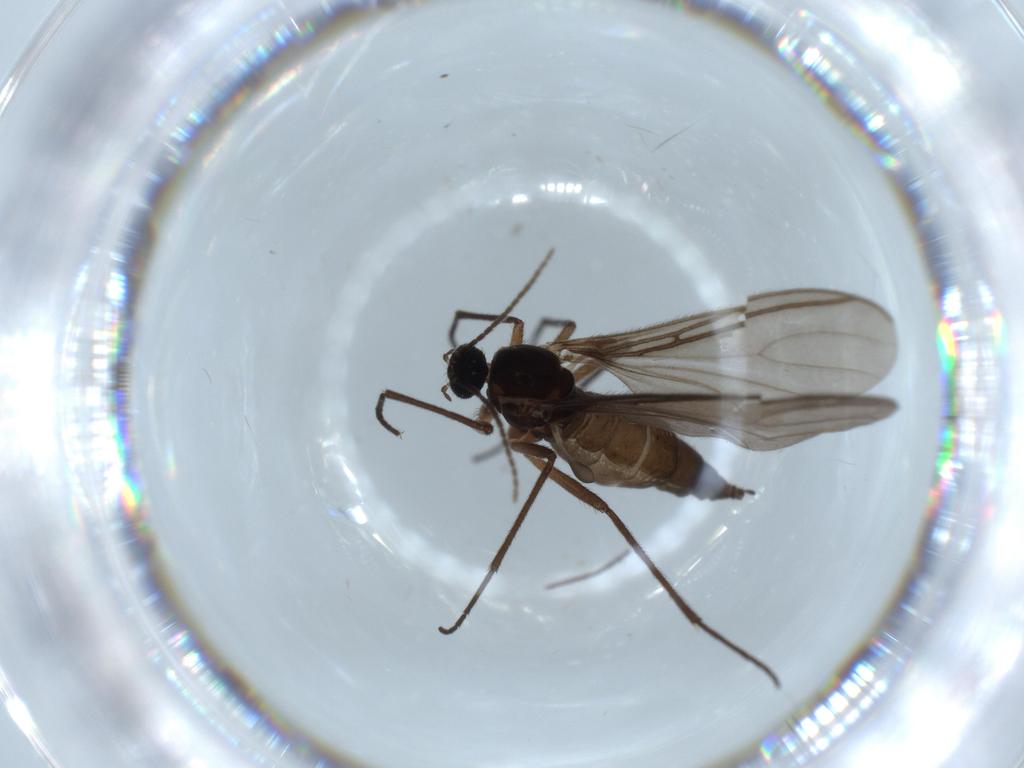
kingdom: Animalia
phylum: Arthropoda
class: Insecta
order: Diptera
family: Sciaridae
